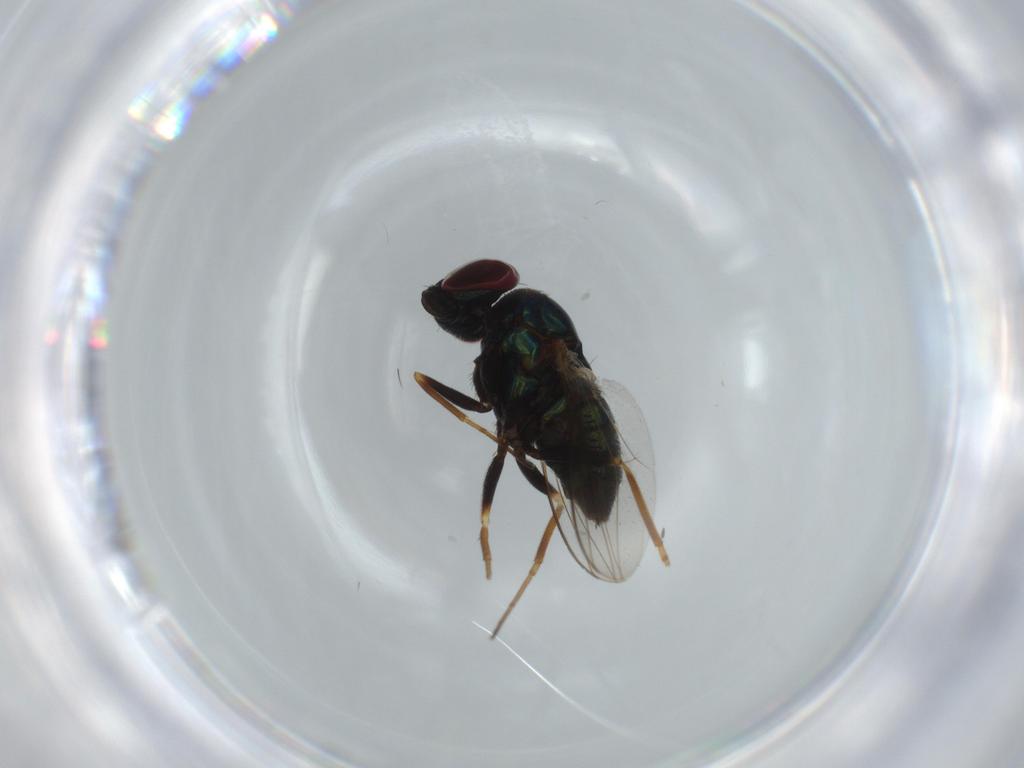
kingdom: Animalia
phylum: Arthropoda
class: Insecta
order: Diptera
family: Dolichopodidae
